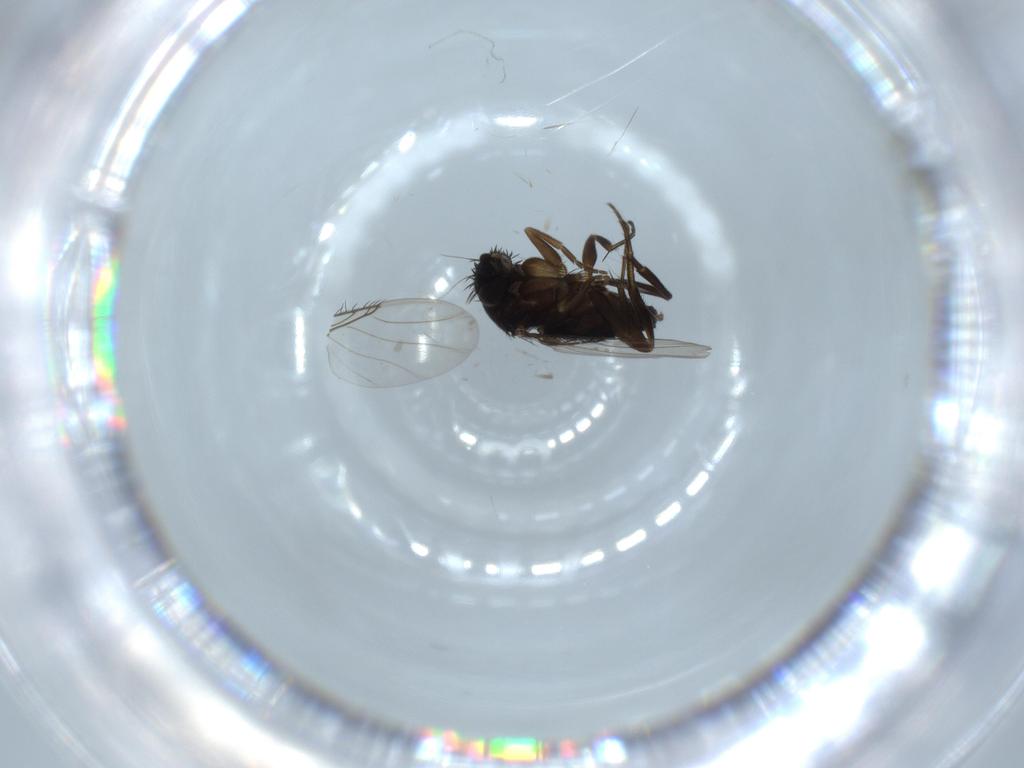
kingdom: Animalia
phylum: Arthropoda
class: Insecta
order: Diptera
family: Phoridae
